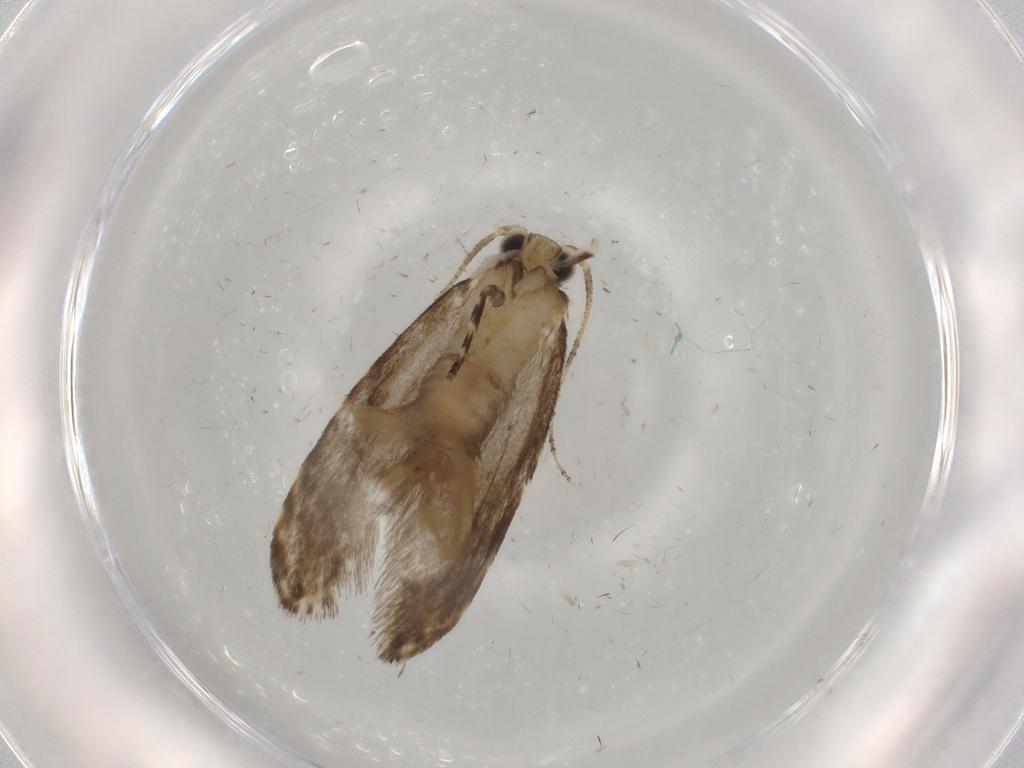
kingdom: Animalia
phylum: Arthropoda
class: Insecta
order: Lepidoptera
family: Tineidae
